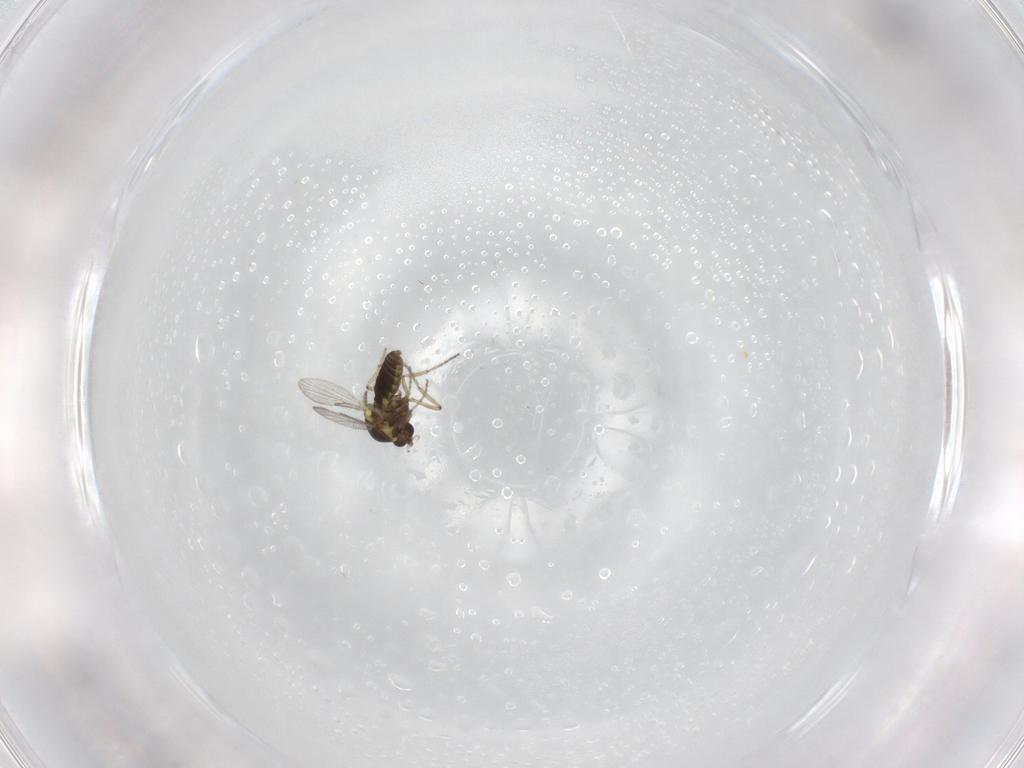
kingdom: Animalia
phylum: Arthropoda
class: Insecta
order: Diptera
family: Ceratopogonidae
